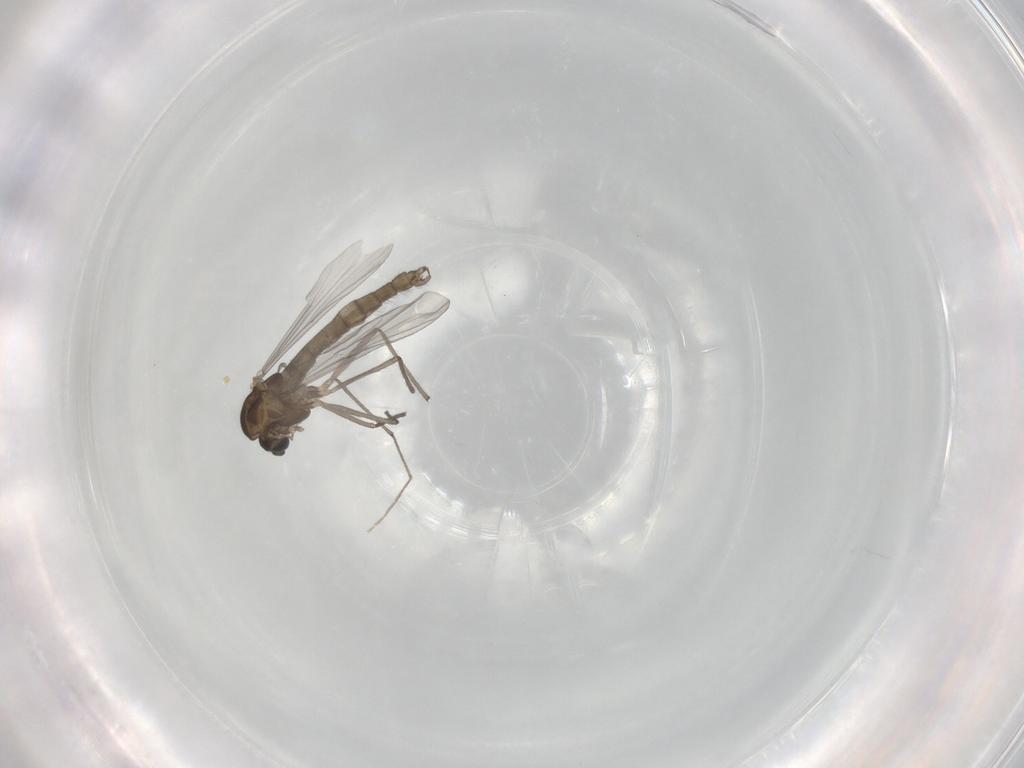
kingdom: Animalia
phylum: Arthropoda
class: Insecta
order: Diptera
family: Chironomidae
